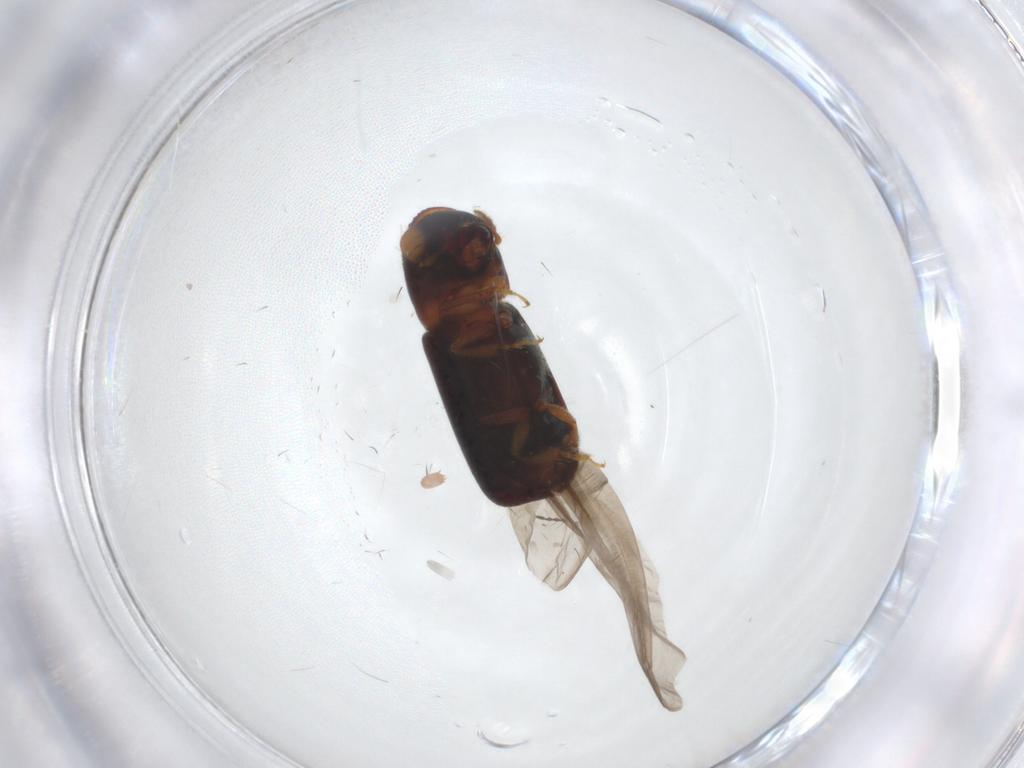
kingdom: Animalia
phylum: Arthropoda
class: Insecta
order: Coleoptera
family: Curculionidae
